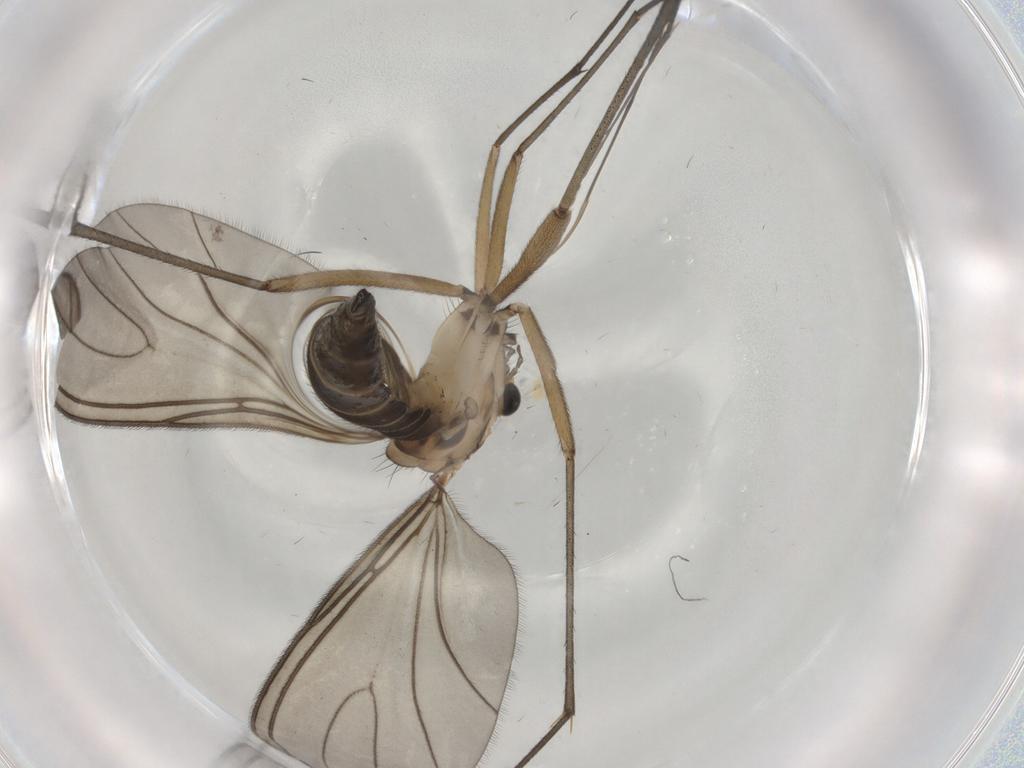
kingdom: Animalia
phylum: Arthropoda
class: Insecta
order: Diptera
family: Sciaridae
